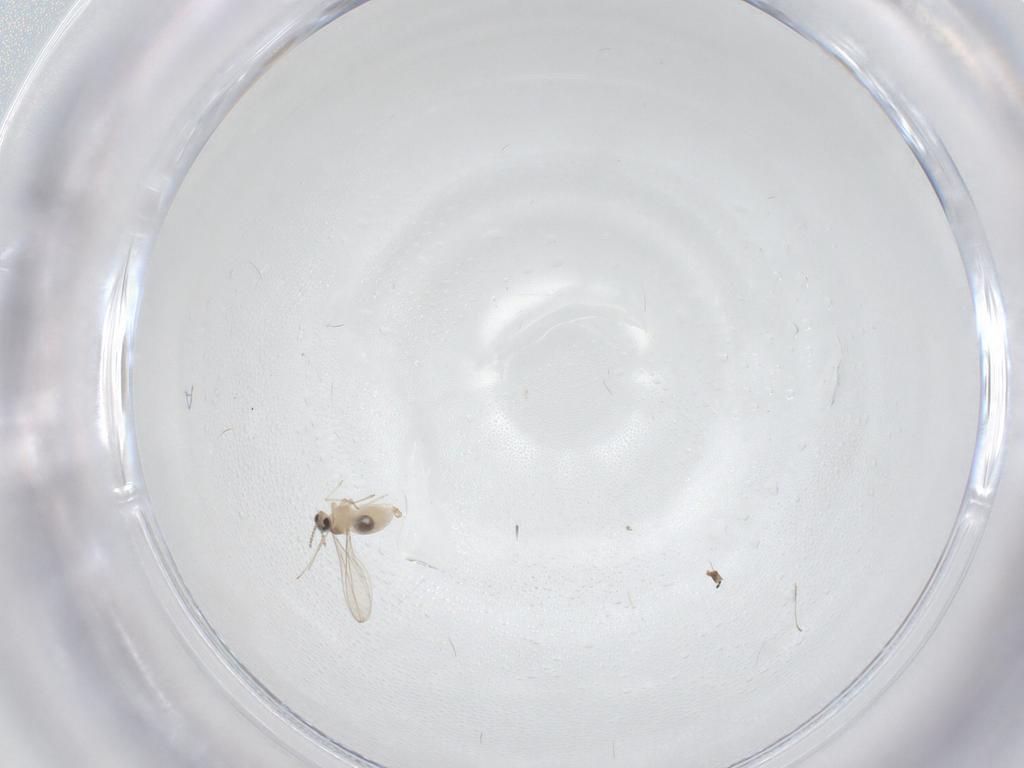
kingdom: Animalia
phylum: Arthropoda
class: Insecta
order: Diptera
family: Cecidomyiidae
